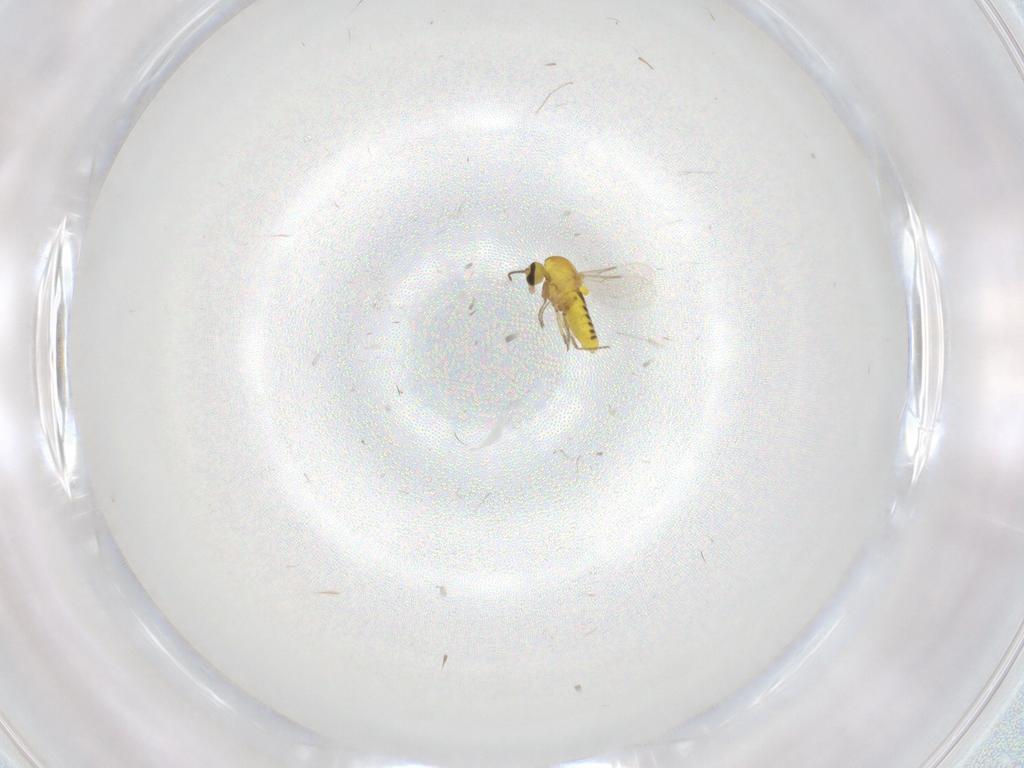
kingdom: Animalia
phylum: Arthropoda
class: Insecta
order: Diptera
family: Ceratopogonidae
